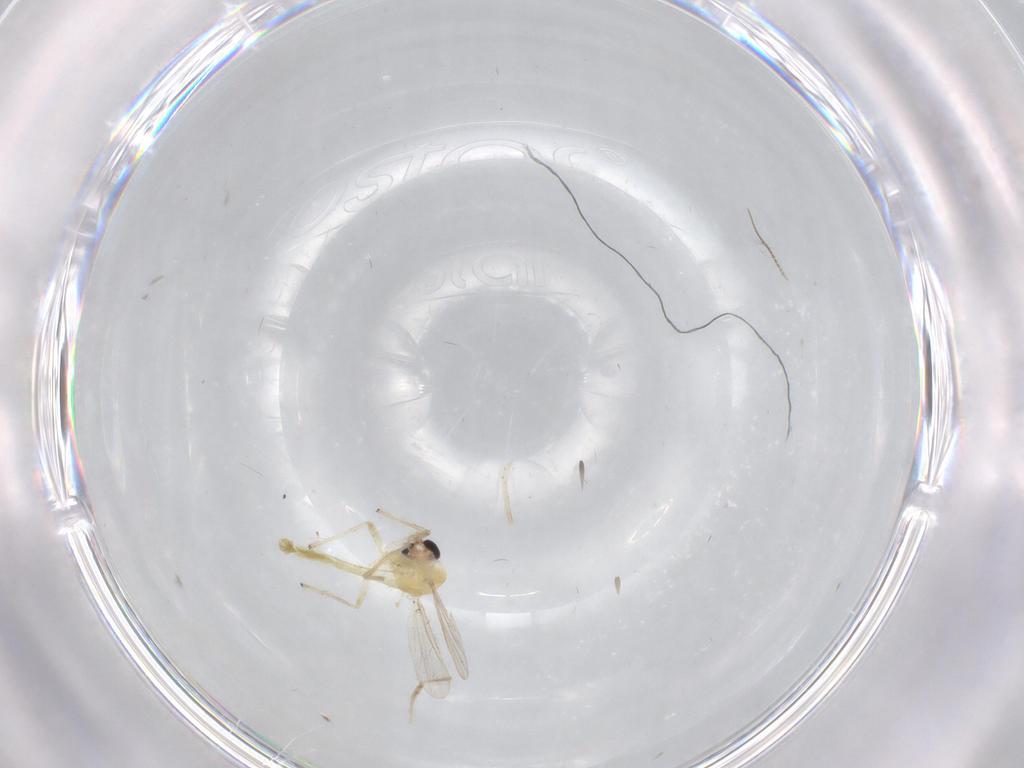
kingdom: Animalia
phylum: Arthropoda
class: Insecta
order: Diptera
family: Chironomidae
